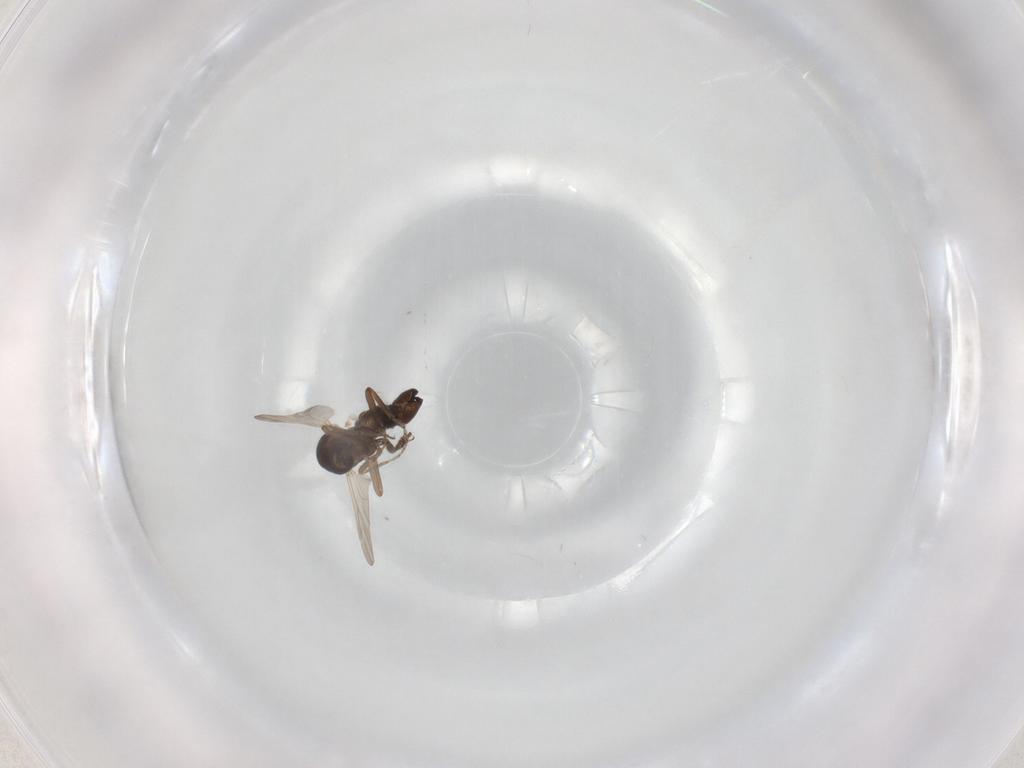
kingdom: Animalia
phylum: Arthropoda
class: Insecta
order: Diptera
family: Ceratopogonidae
